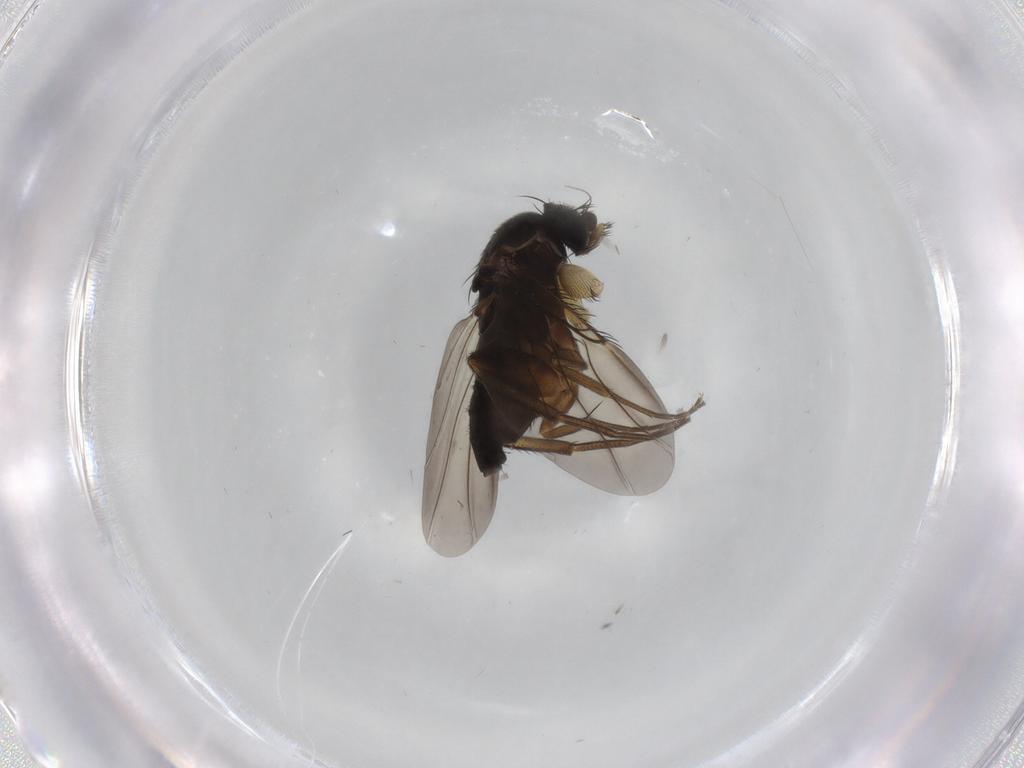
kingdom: Animalia
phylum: Arthropoda
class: Insecta
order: Diptera
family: Phoridae
